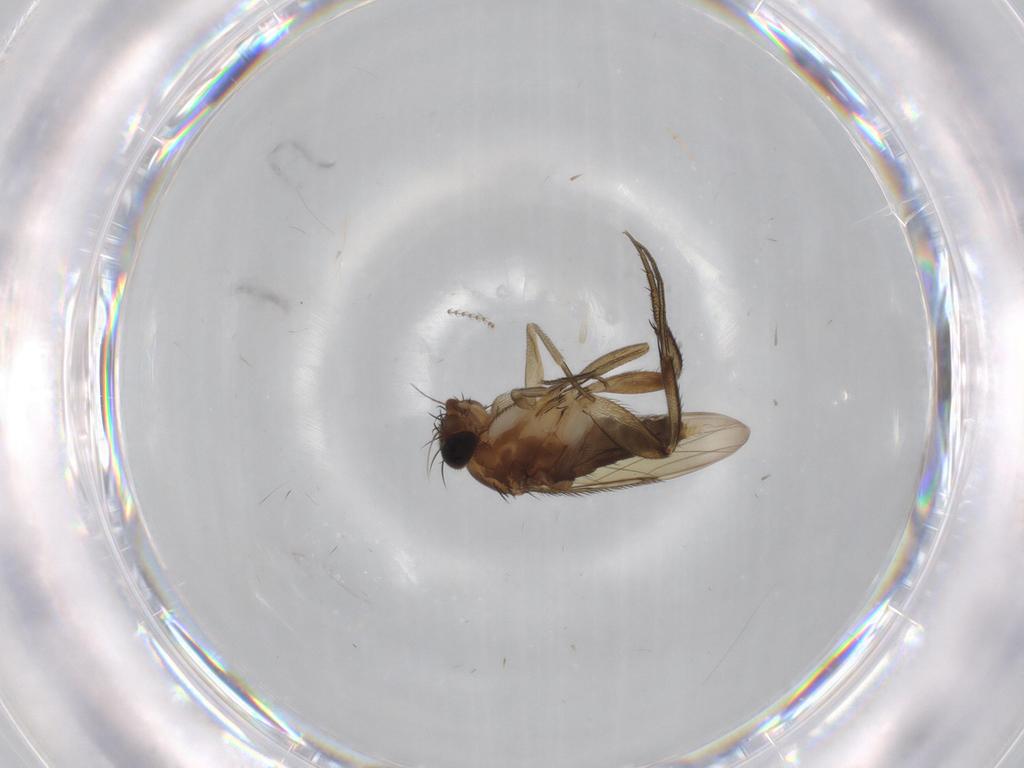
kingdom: Animalia
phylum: Arthropoda
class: Insecta
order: Diptera
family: Phoridae
